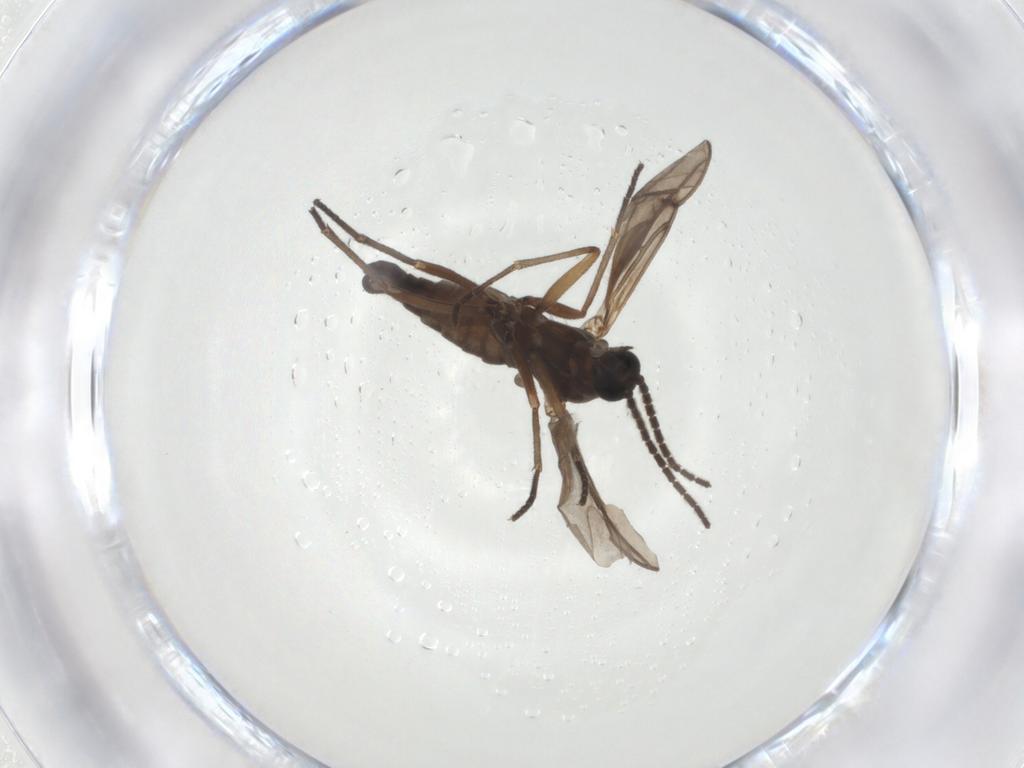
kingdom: Animalia
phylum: Arthropoda
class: Insecta
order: Diptera
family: Sciaridae
